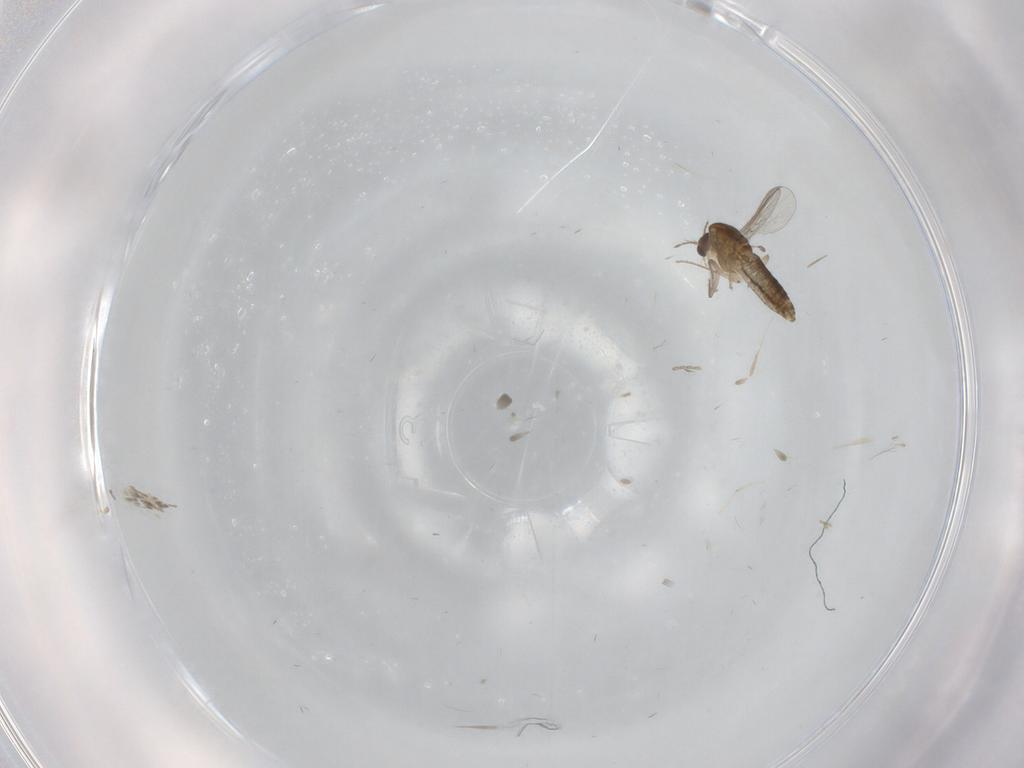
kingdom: Animalia
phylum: Arthropoda
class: Insecta
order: Diptera
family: Chironomidae
